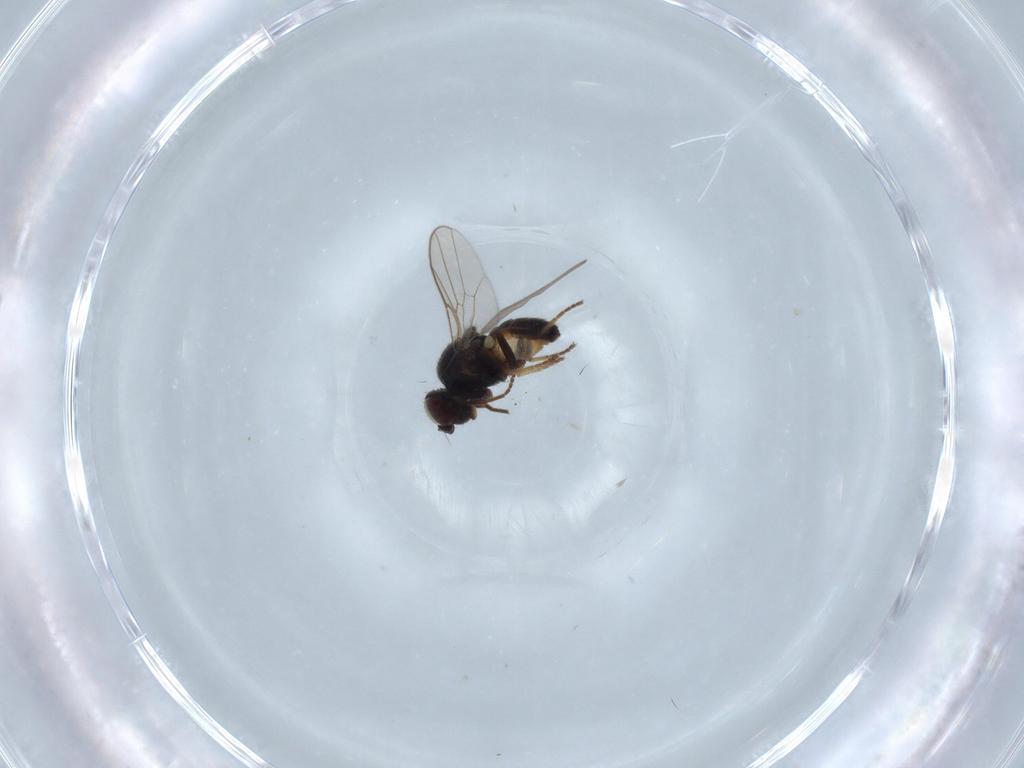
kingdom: Animalia
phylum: Arthropoda
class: Insecta
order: Diptera
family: Chloropidae
